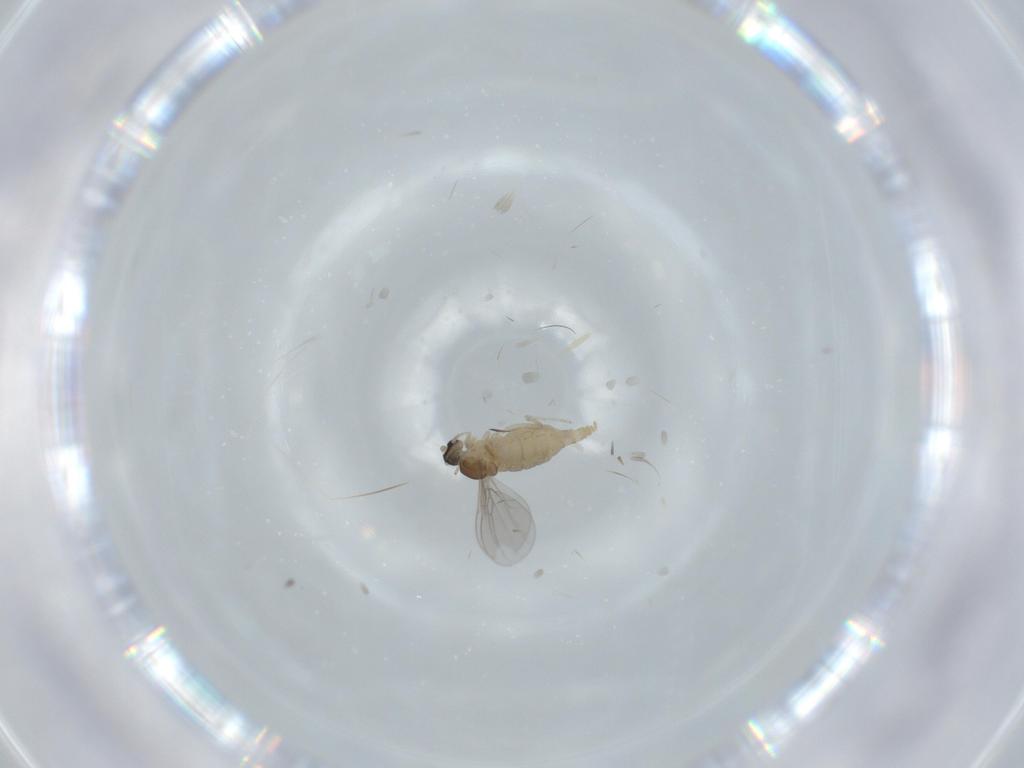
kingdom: Animalia
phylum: Arthropoda
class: Insecta
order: Diptera
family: Cecidomyiidae
